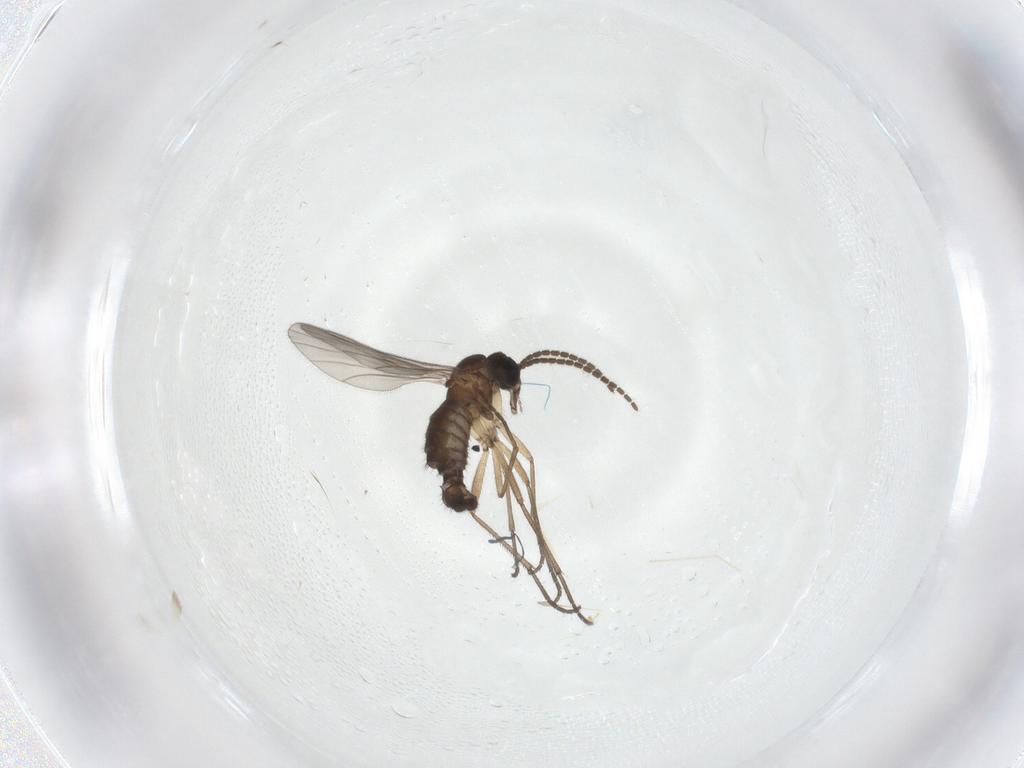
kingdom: Animalia
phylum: Arthropoda
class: Insecta
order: Diptera
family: Sciaridae
